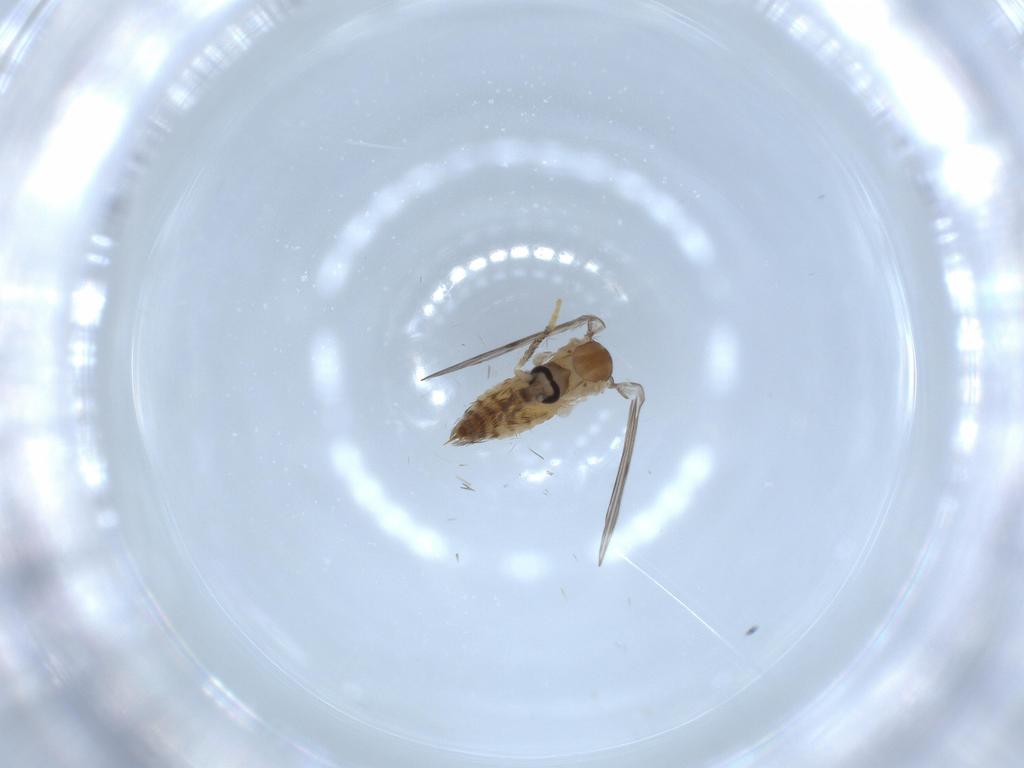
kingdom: Animalia
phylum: Arthropoda
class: Insecta
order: Diptera
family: Psychodidae
